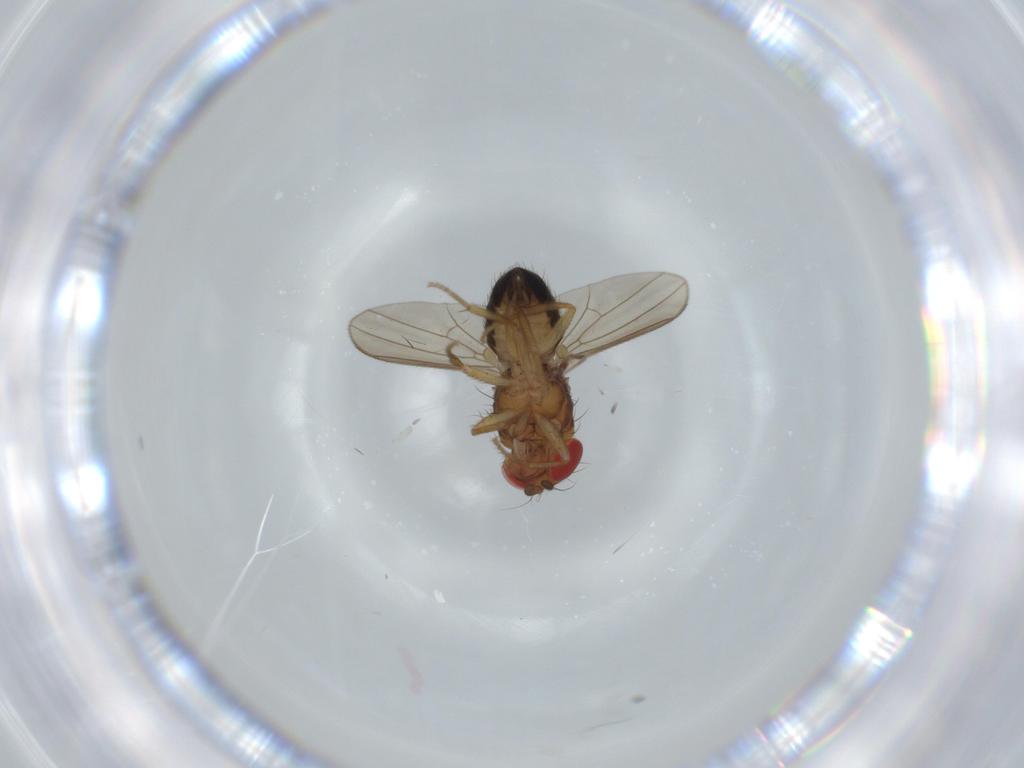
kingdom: Animalia
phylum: Arthropoda
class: Insecta
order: Diptera
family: Drosophilidae
